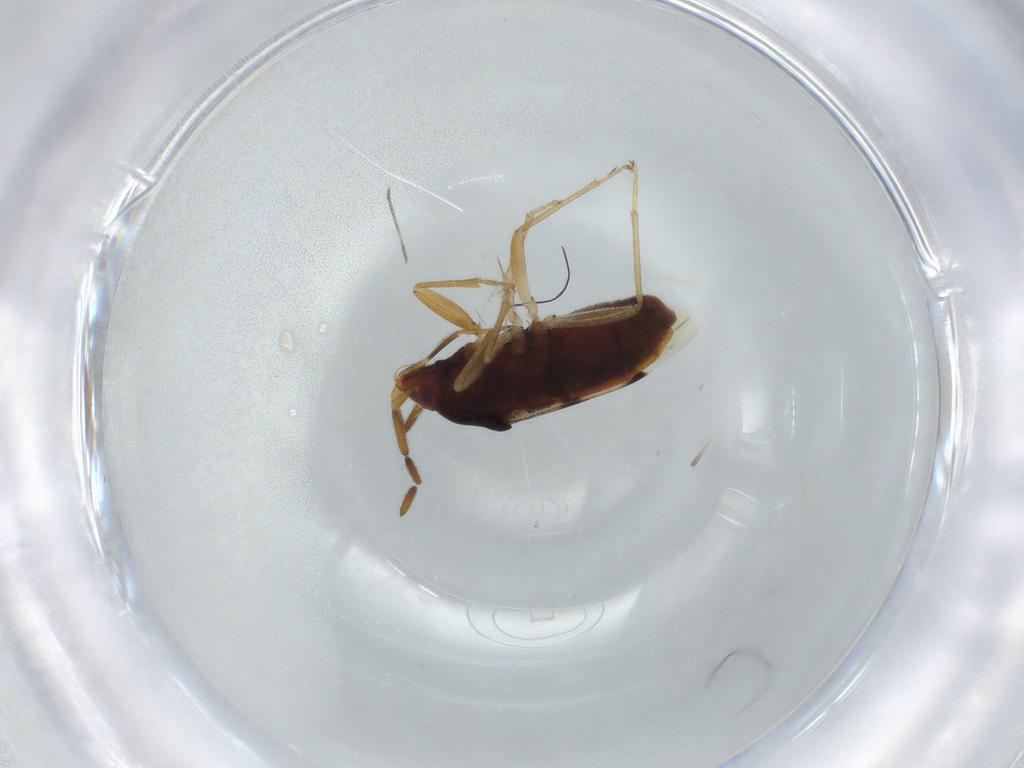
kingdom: Animalia
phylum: Arthropoda
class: Insecta
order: Hemiptera
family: Rhyparochromidae
